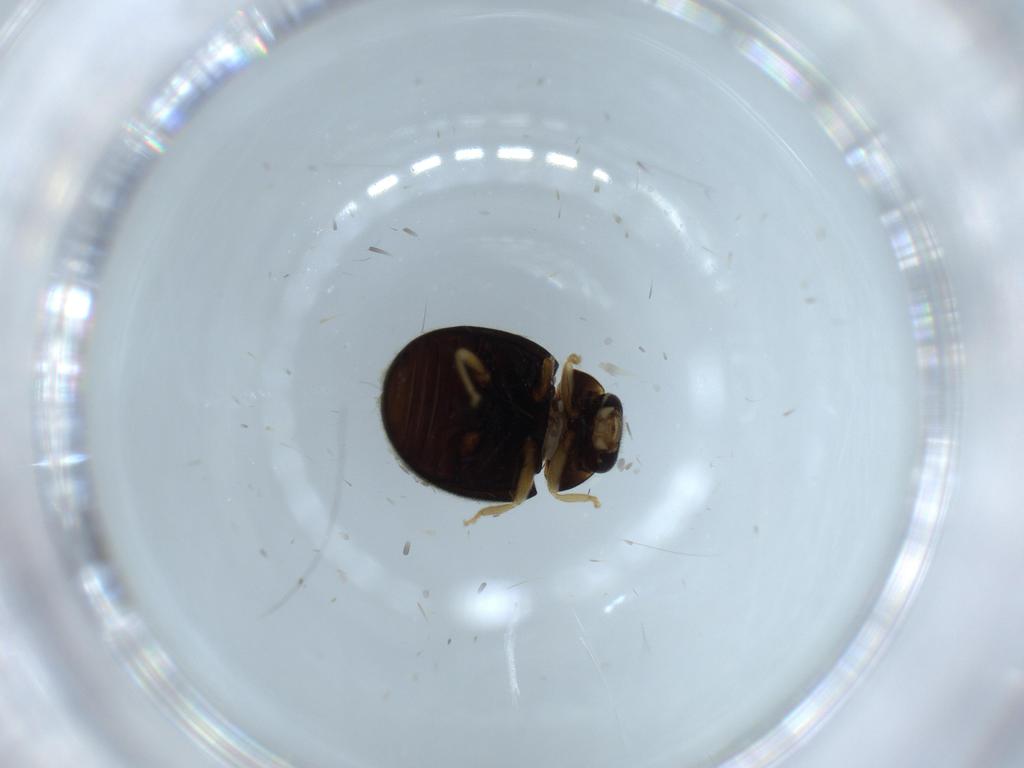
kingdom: Animalia
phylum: Arthropoda
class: Insecta
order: Coleoptera
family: Coccinellidae
